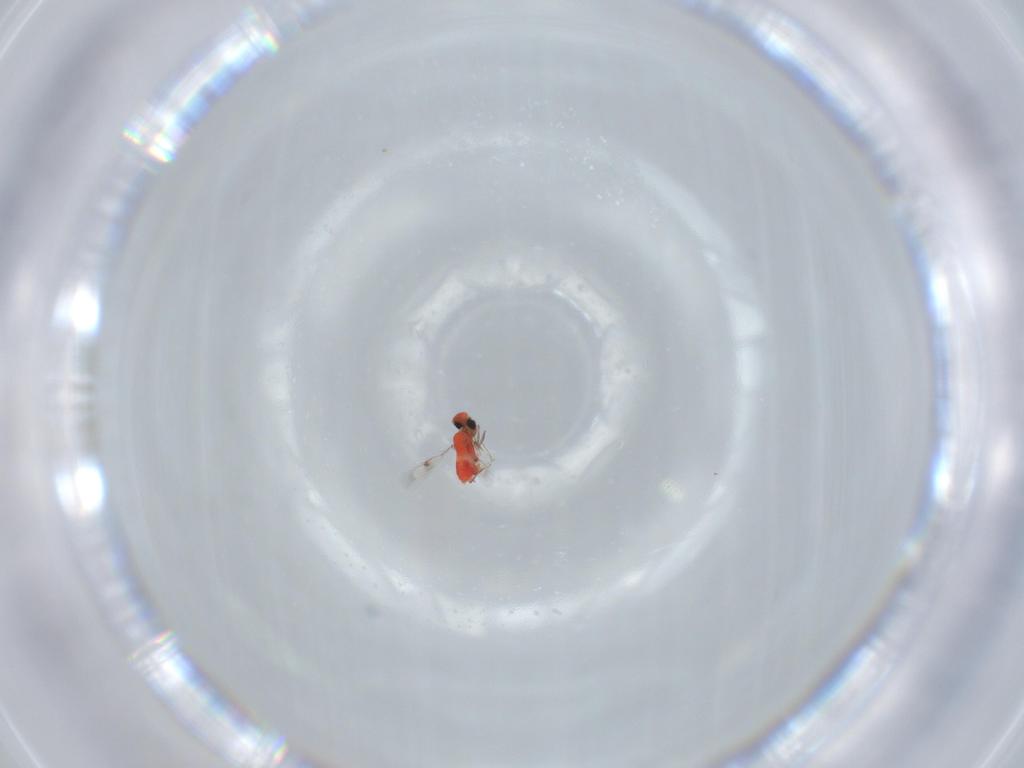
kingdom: Animalia
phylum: Arthropoda
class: Insecta
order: Hymenoptera
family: Trichogrammatidae
